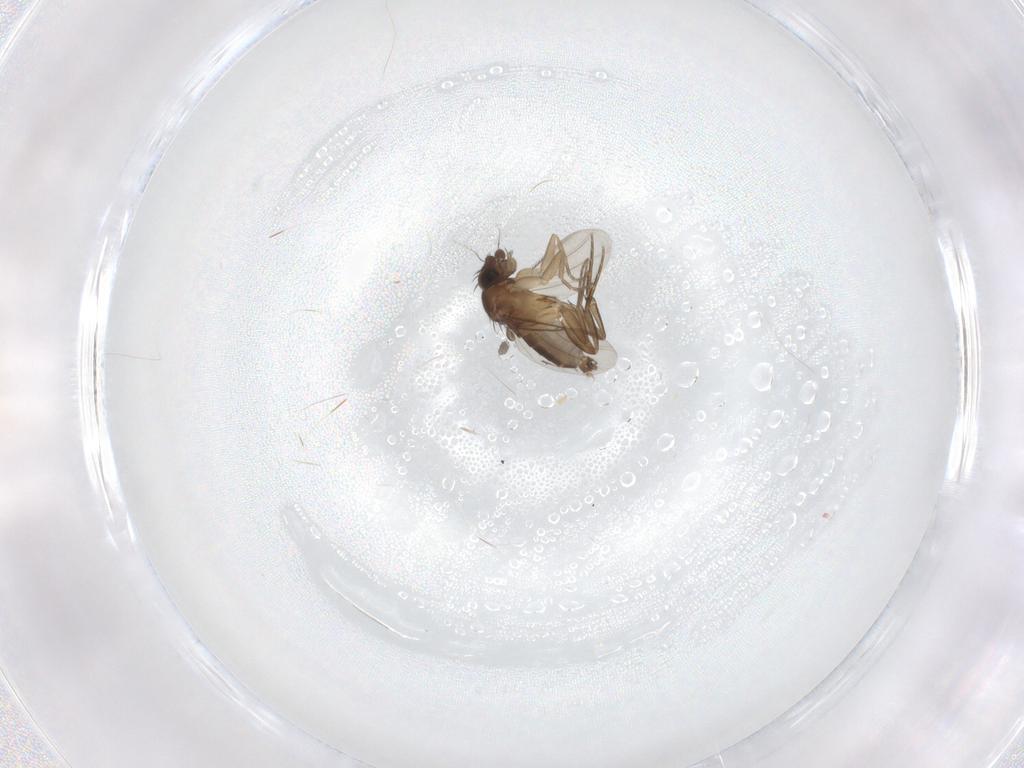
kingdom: Animalia
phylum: Arthropoda
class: Insecta
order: Diptera
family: Phoridae
